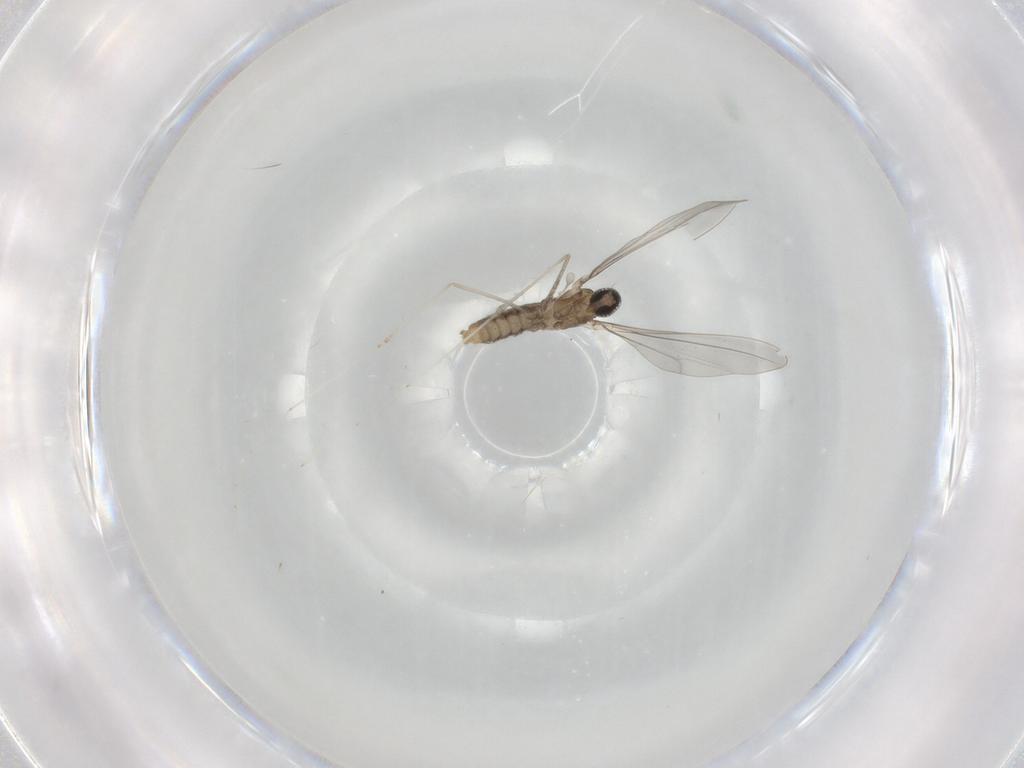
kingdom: Animalia
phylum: Arthropoda
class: Insecta
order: Diptera
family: Cecidomyiidae
